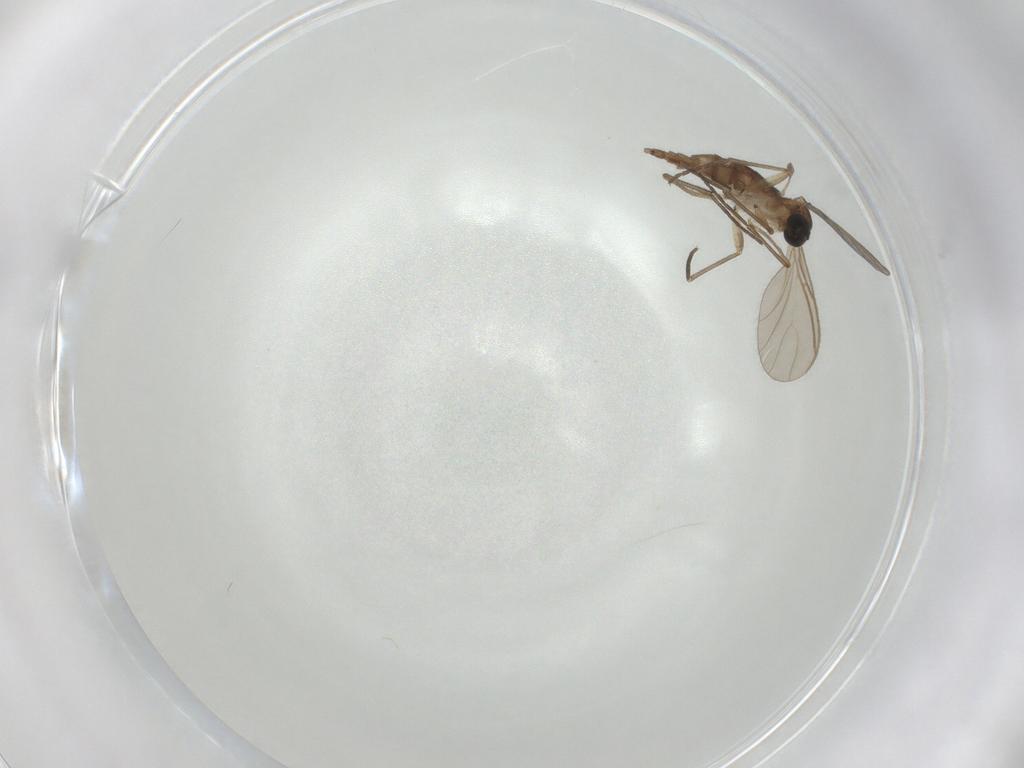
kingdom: Animalia
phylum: Arthropoda
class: Insecta
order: Diptera
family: Sciaridae
